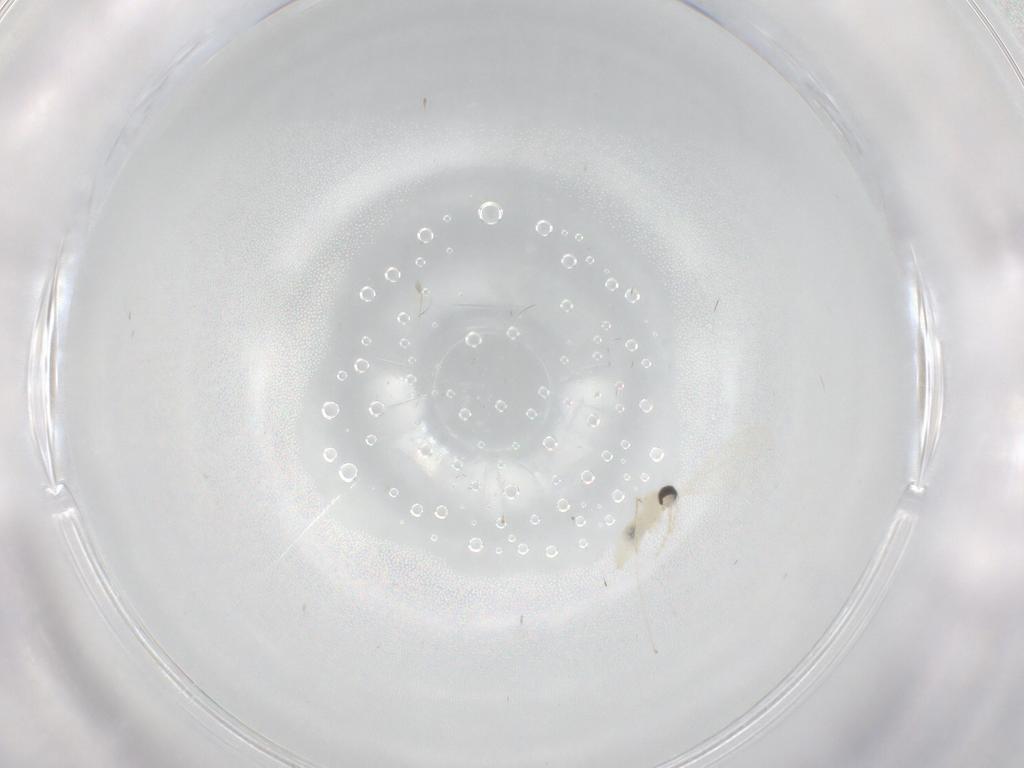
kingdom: Animalia
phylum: Arthropoda
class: Insecta
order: Diptera
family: Cecidomyiidae
